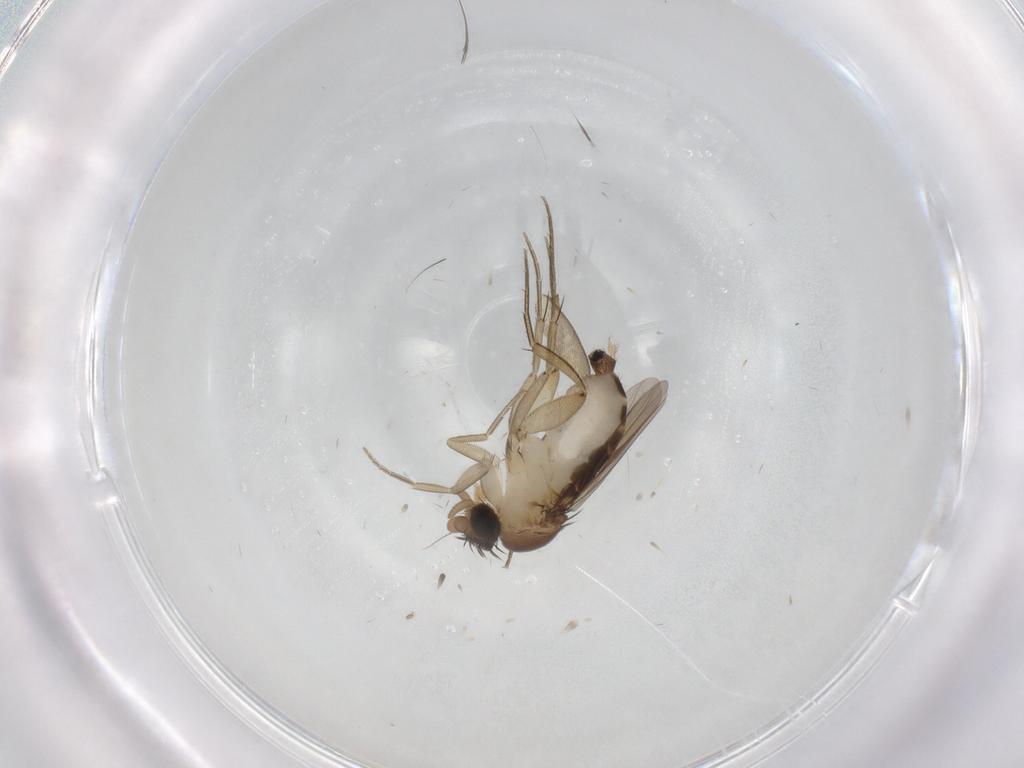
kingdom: Animalia
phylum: Arthropoda
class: Insecta
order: Diptera
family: Phoridae
